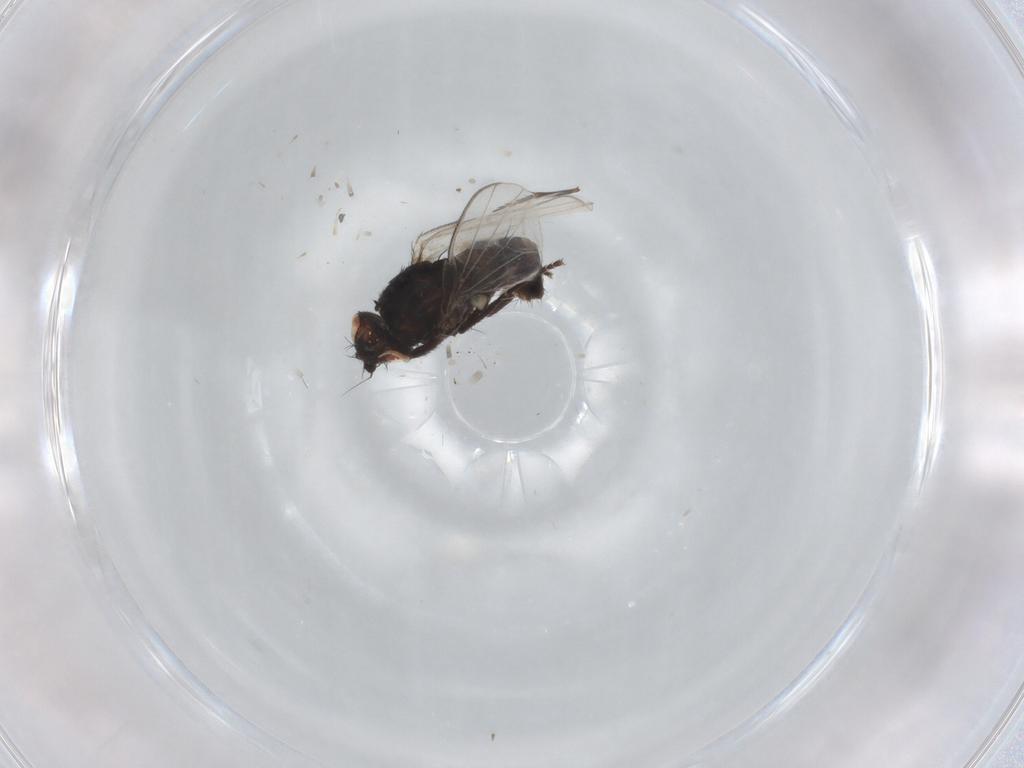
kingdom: Animalia
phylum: Arthropoda
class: Insecta
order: Diptera
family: Milichiidae
